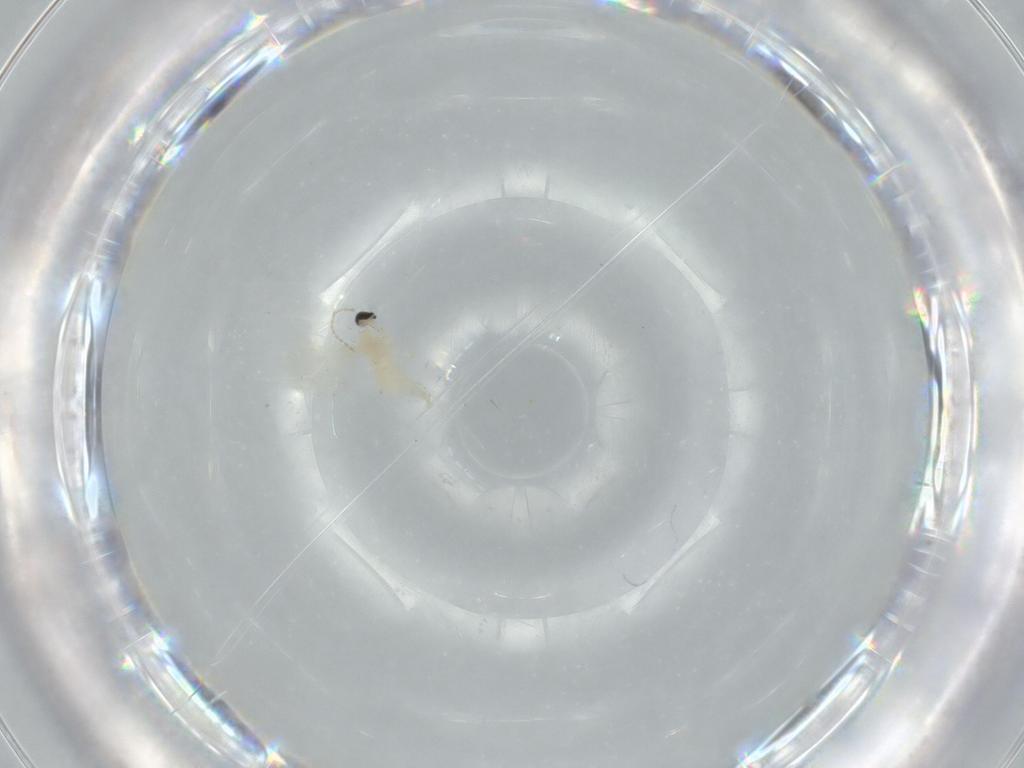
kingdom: Animalia
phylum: Arthropoda
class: Insecta
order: Diptera
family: Cecidomyiidae
